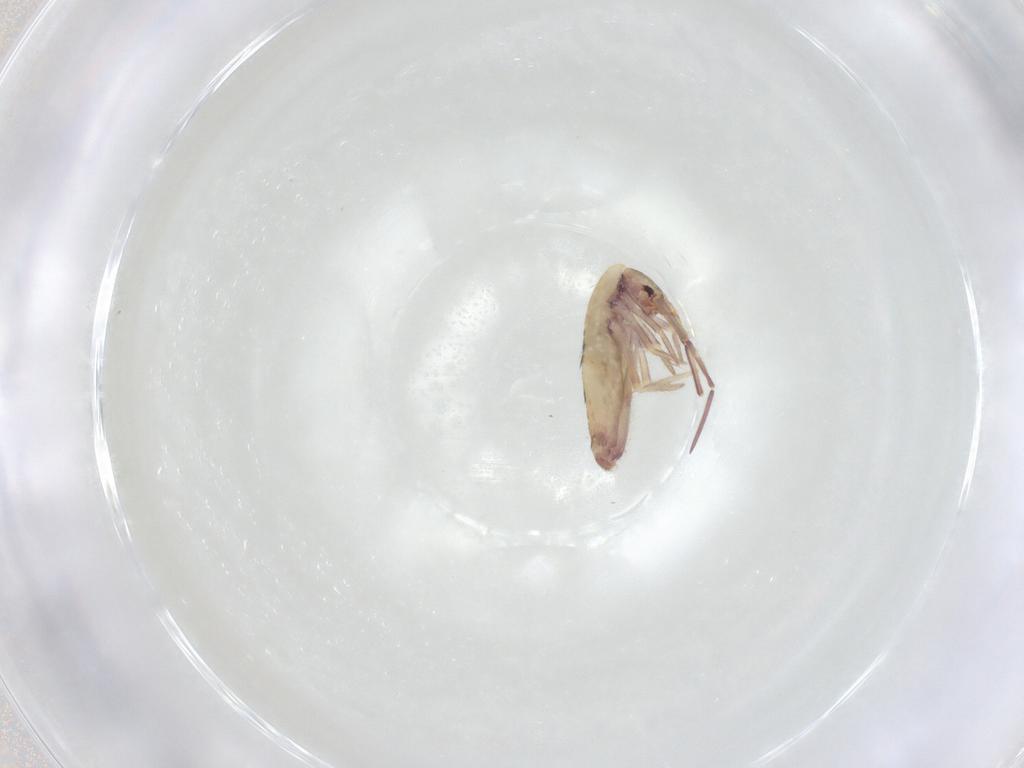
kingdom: Animalia
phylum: Arthropoda
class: Collembola
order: Entomobryomorpha
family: Entomobryidae
